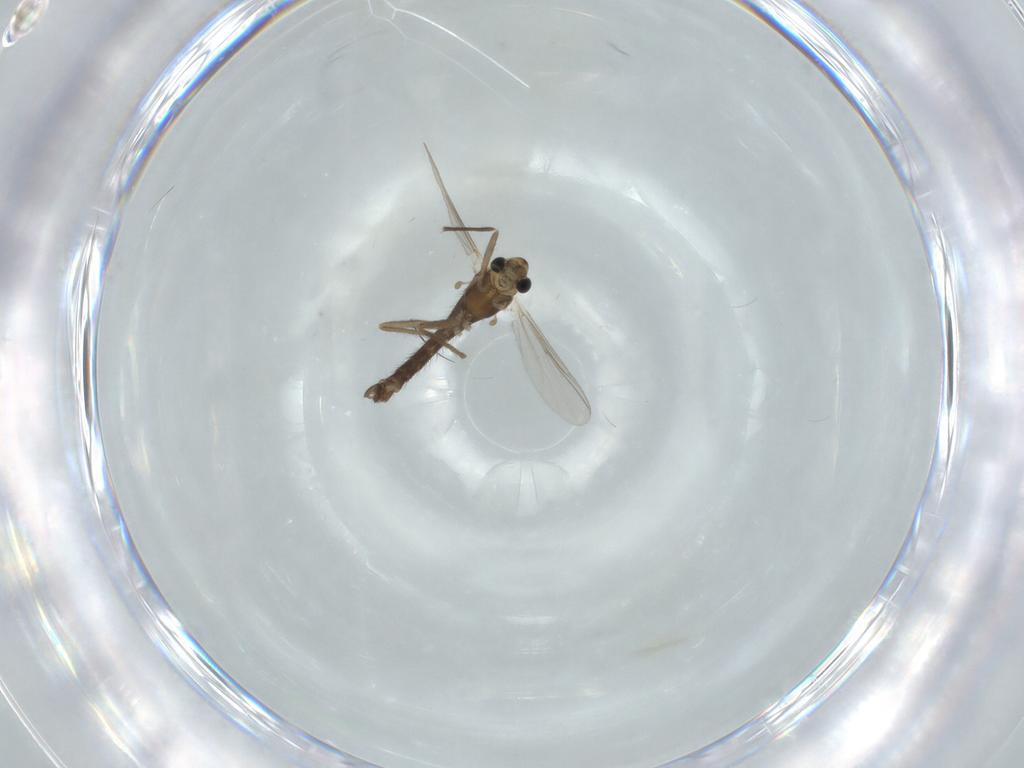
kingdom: Animalia
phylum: Arthropoda
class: Insecta
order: Diptera
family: Chironomidae
